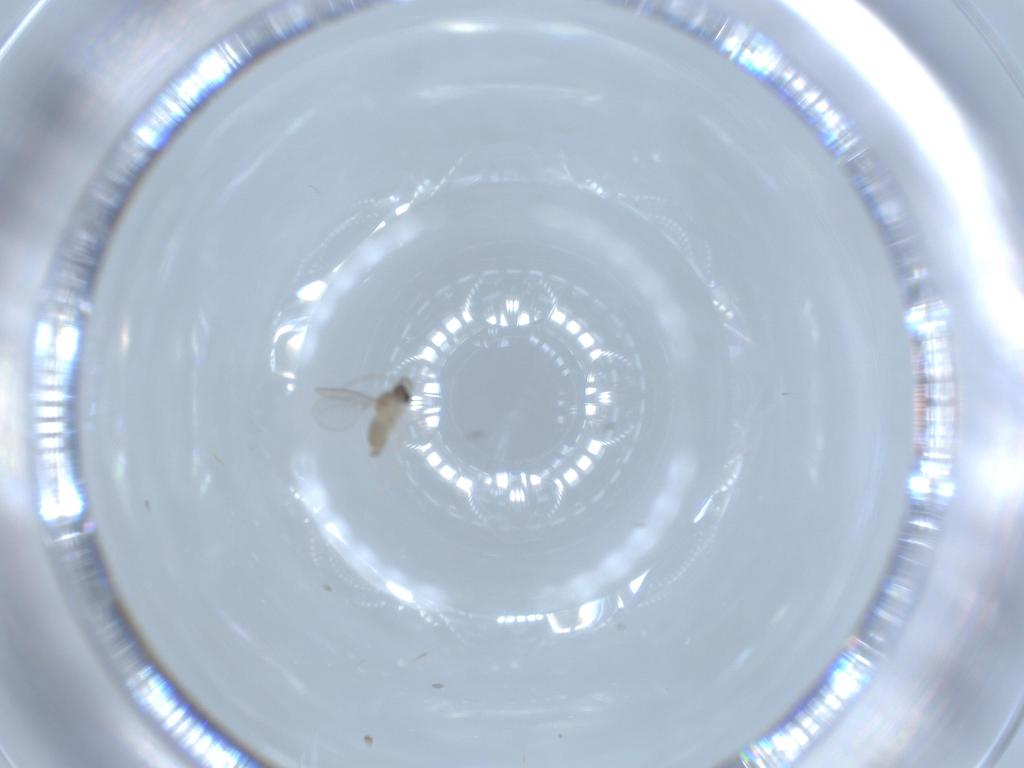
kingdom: Animalia
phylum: Arthropoda
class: Insecta
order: Diptera
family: Cecidomyiidae
